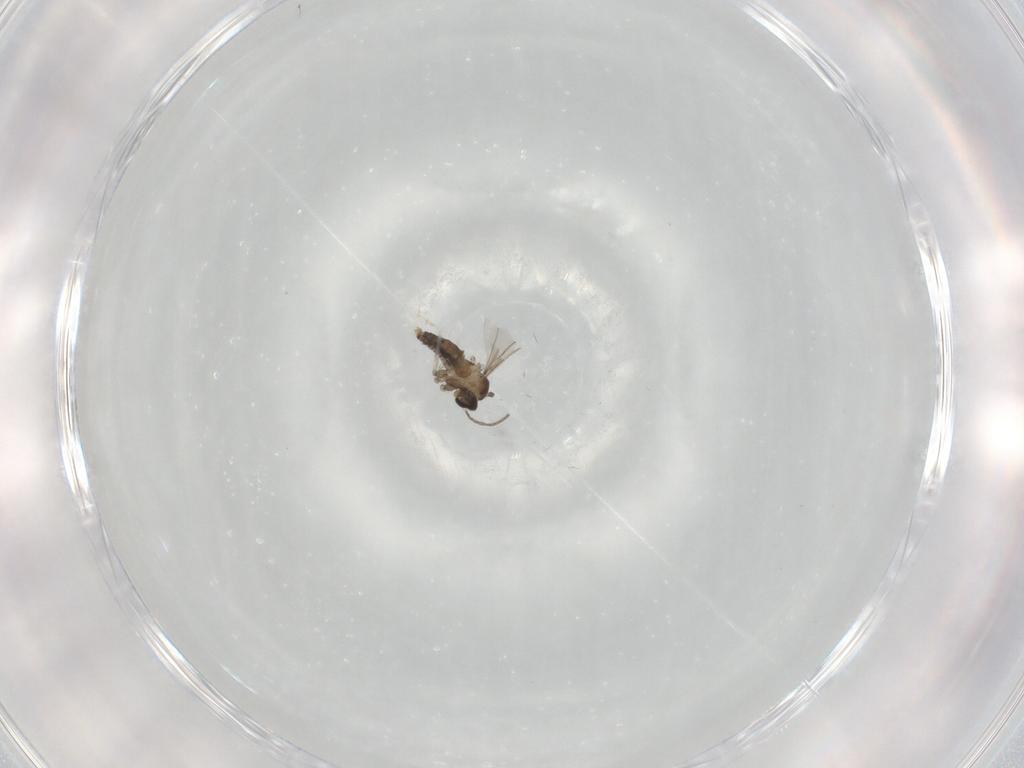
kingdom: Animalia
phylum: Arthropoda
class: Insecta
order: Diptera
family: Cecidomyiidae
